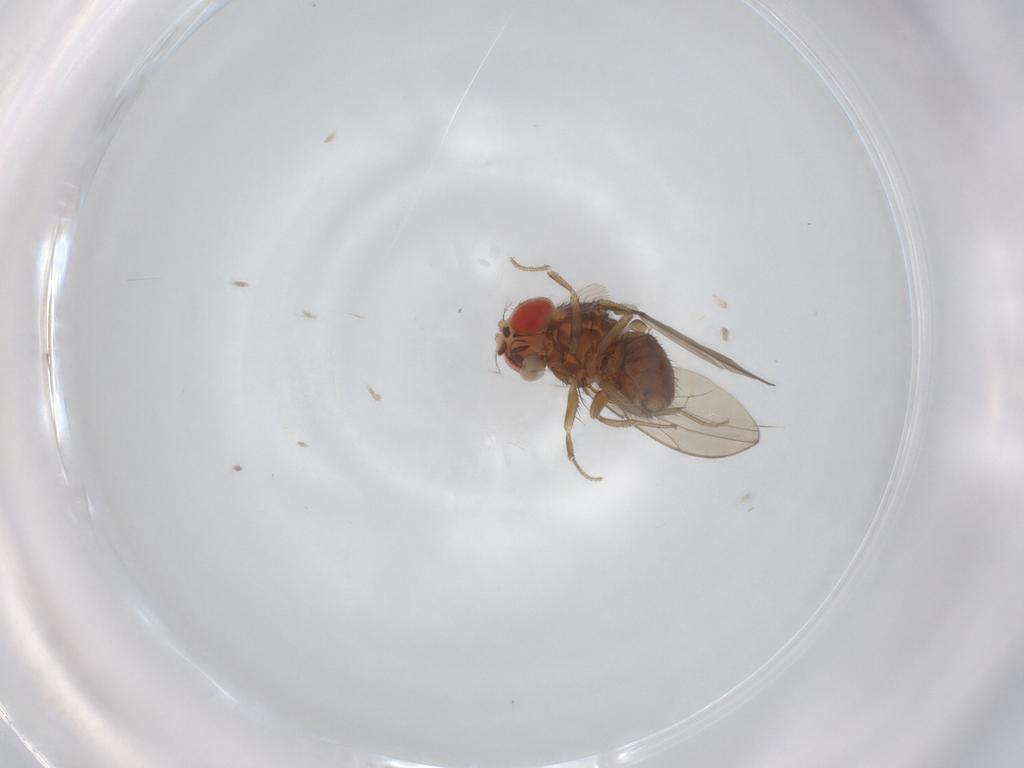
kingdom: Animalia
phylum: Arthropoda
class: Insecta
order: Diptera
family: Drosophilidae
